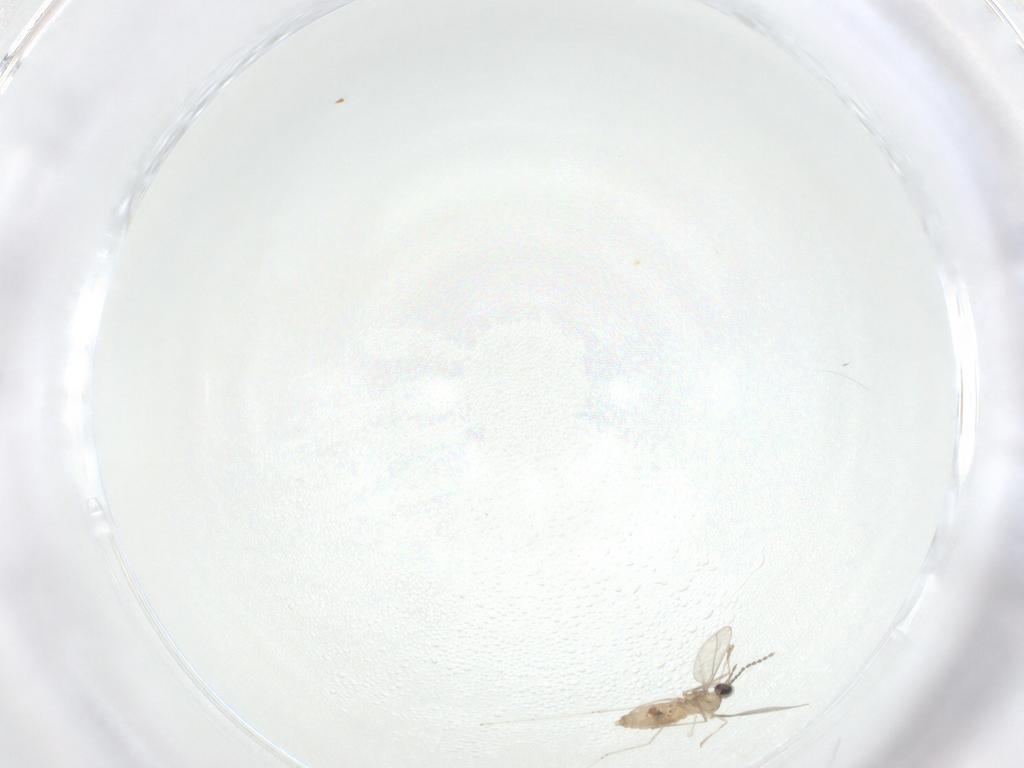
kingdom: Animalia
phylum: Arthropoda
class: Insecta
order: Diptera
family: Cecidomyiidae
